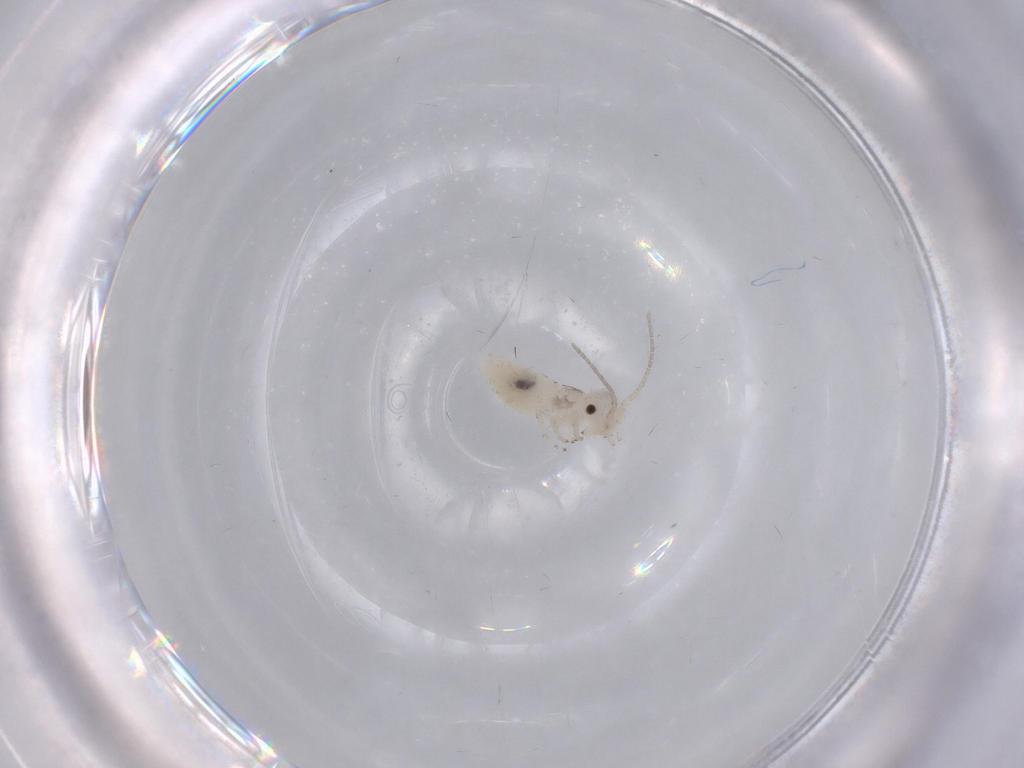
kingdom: Animalia
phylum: Arthropoda
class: Insecta
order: Psocodea
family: Caeciliusidae
